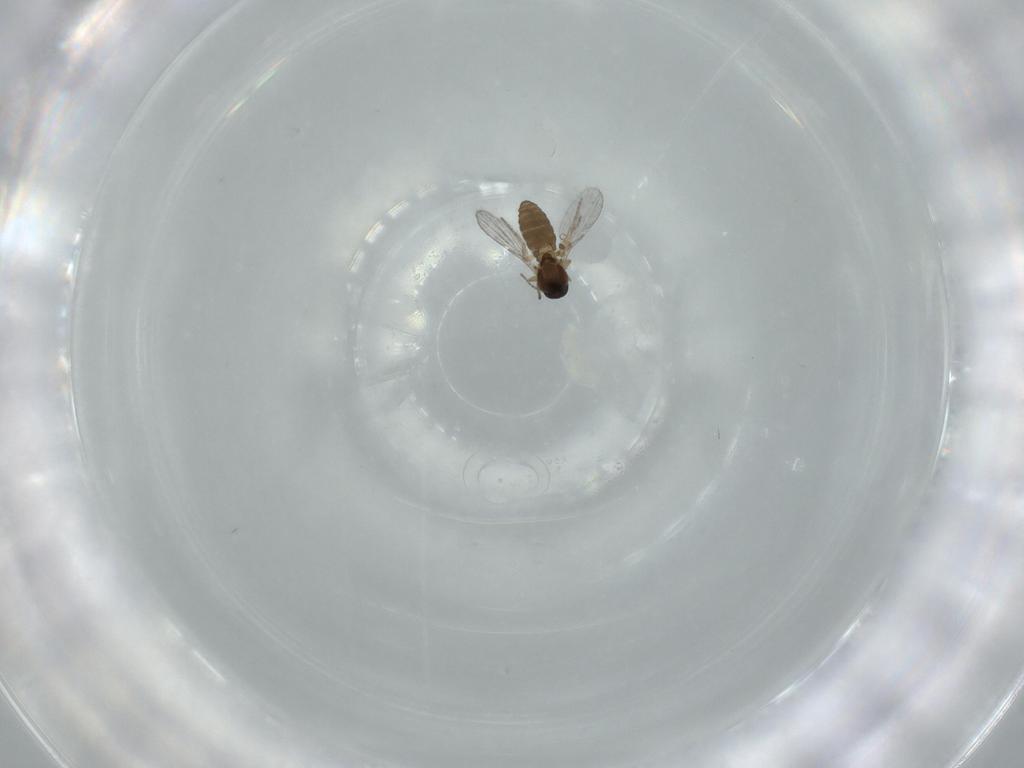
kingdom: Animalia
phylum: Arthropoda
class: Insecta
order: Diptera
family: Ceratopogonidae
